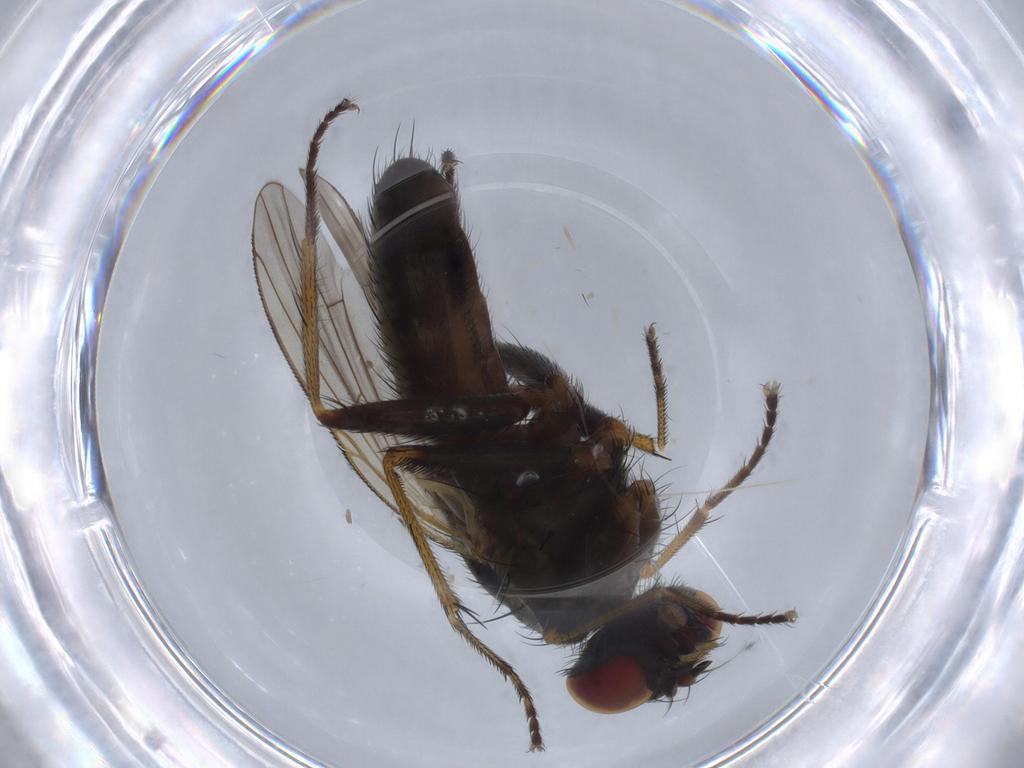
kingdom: Animalia
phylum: Arthropoda
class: Insecta
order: Diptera
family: Muscidae
